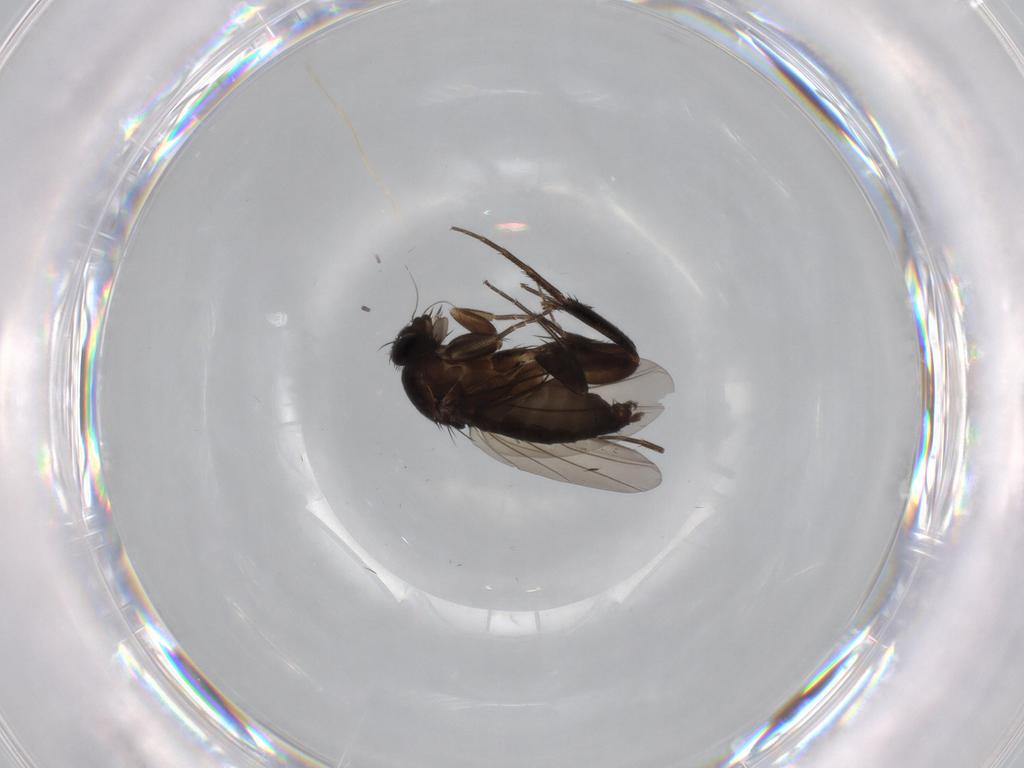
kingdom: Animalia
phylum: Arthropoda
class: Insecta
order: Diptera
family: Phoridae
